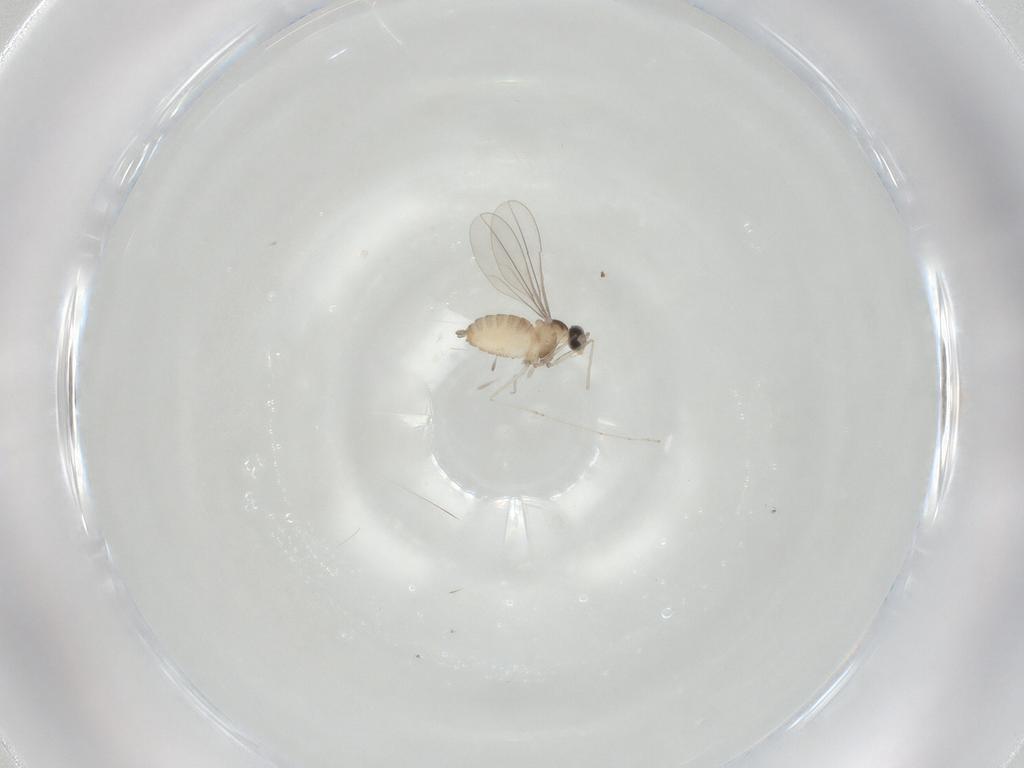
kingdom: Animalia
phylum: Arthropoda
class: Insecta
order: Diptera
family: Cecidomyiidae
